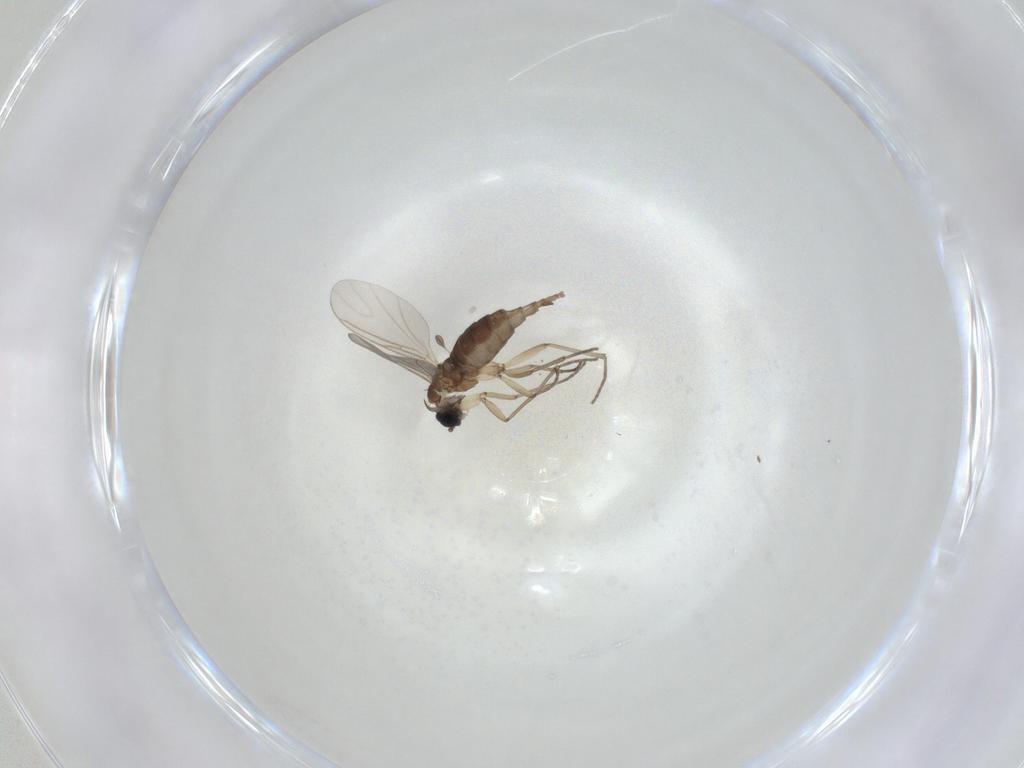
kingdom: Animalia
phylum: Arthropoda
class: Insecta
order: Diptera
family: Sciaridae
